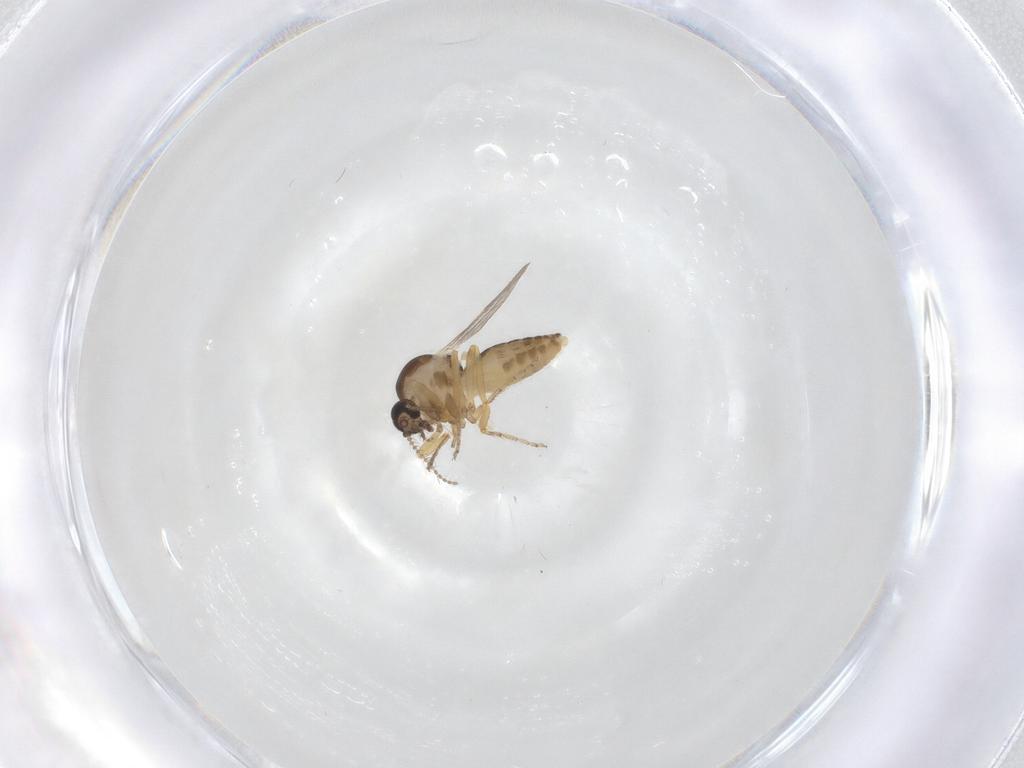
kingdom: Animalia
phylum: Arthropoda
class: Insecta
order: Diptera
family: Ceratopogonidae
